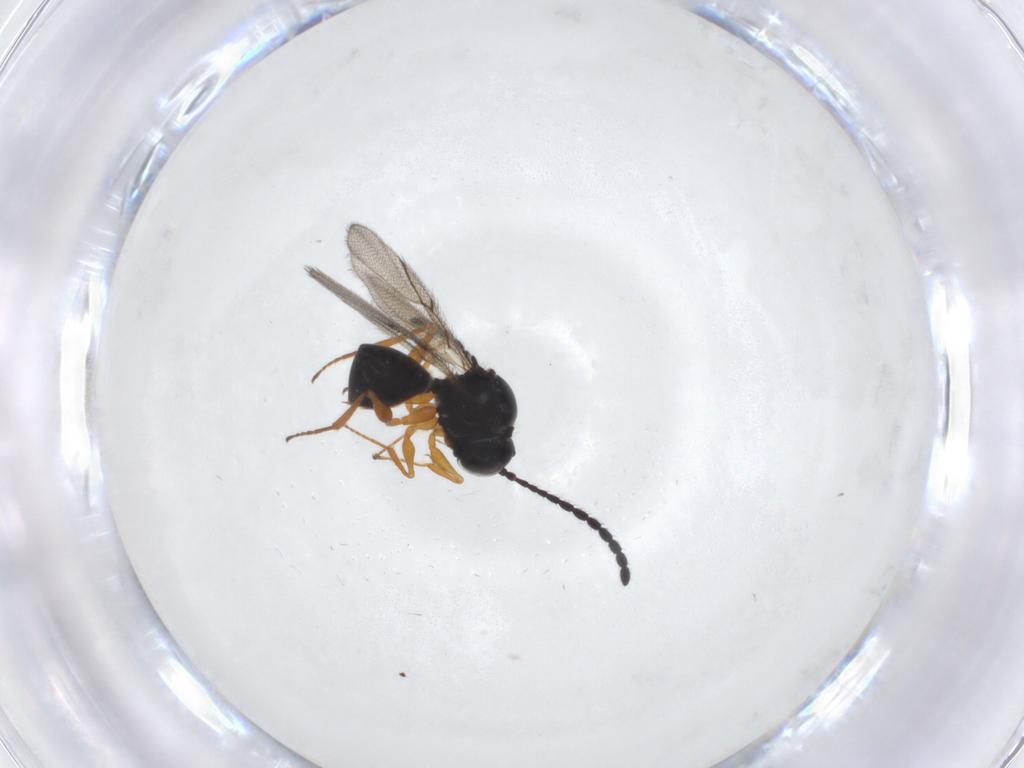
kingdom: Animalia
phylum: Arthropoda
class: Insecta
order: Hymenoptera
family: Figitidae
